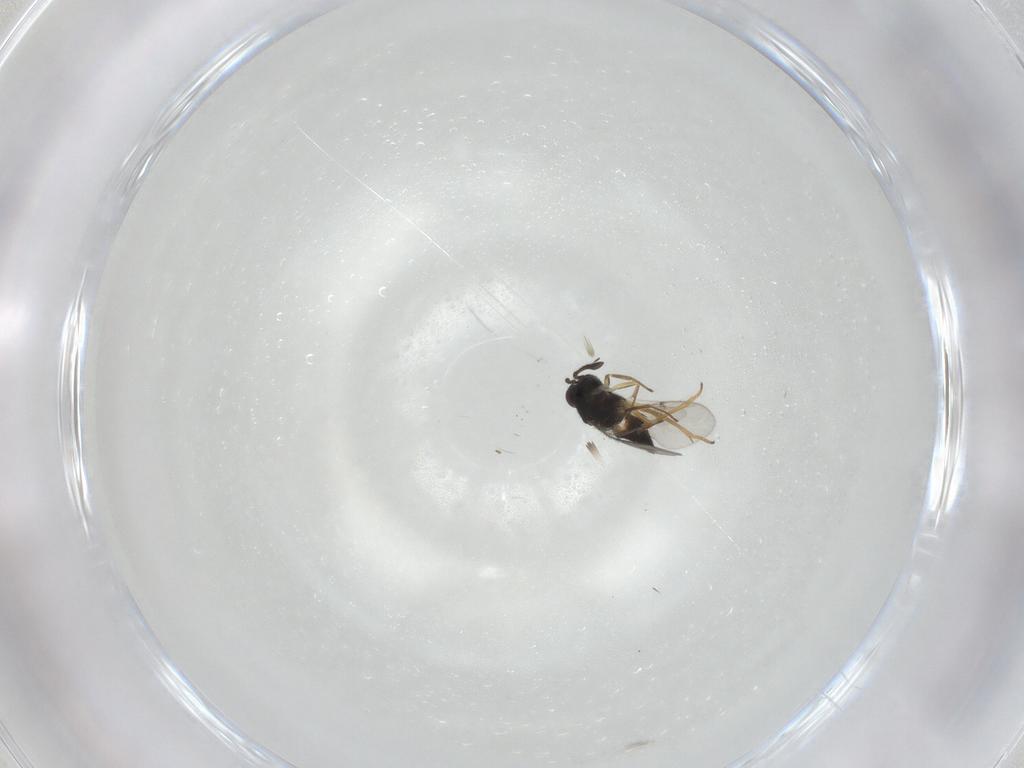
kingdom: Animalia
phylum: Arthropoda
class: Insecta
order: Hymenoptera
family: Encyrtidae
